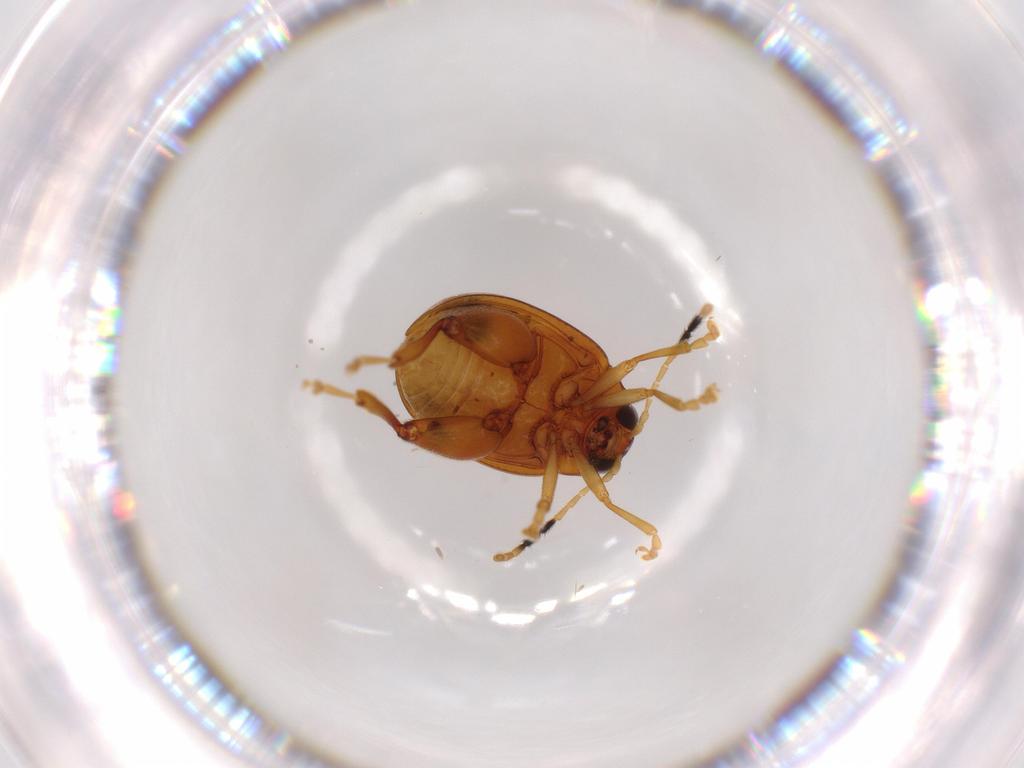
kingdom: Animalia
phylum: Arthropoda
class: Insecta
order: Coleoptera
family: Chrysomelidae
